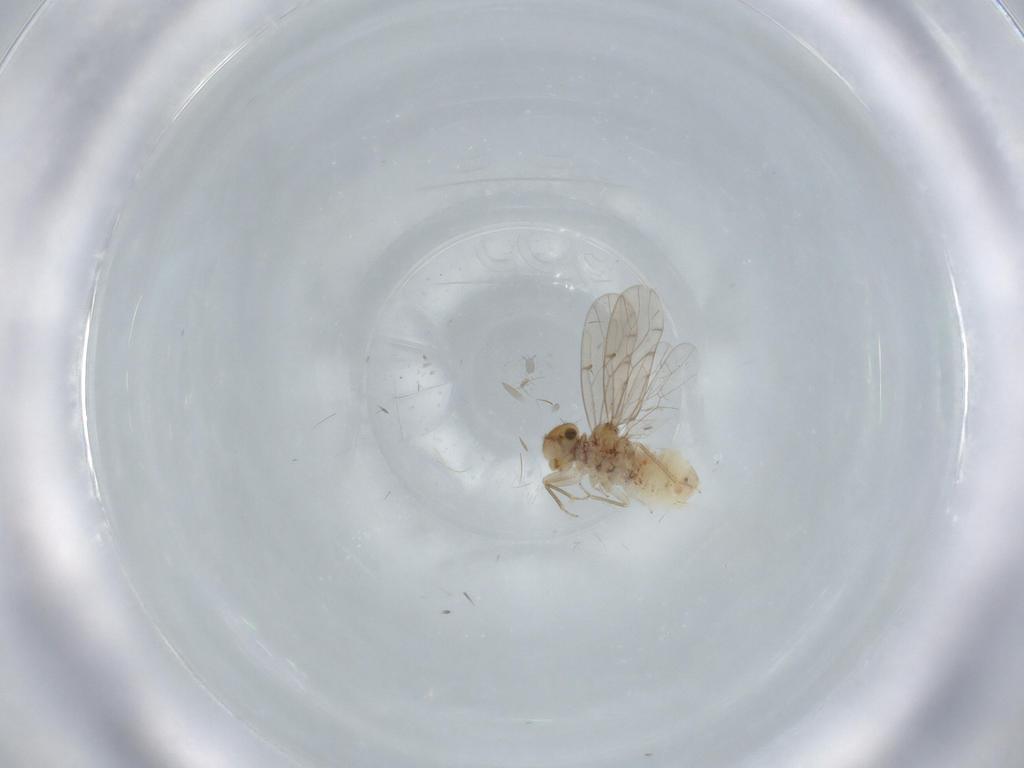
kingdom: Animalia
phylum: Arthropoda
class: Insecta
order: Psocodea
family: Ectopsocidae
